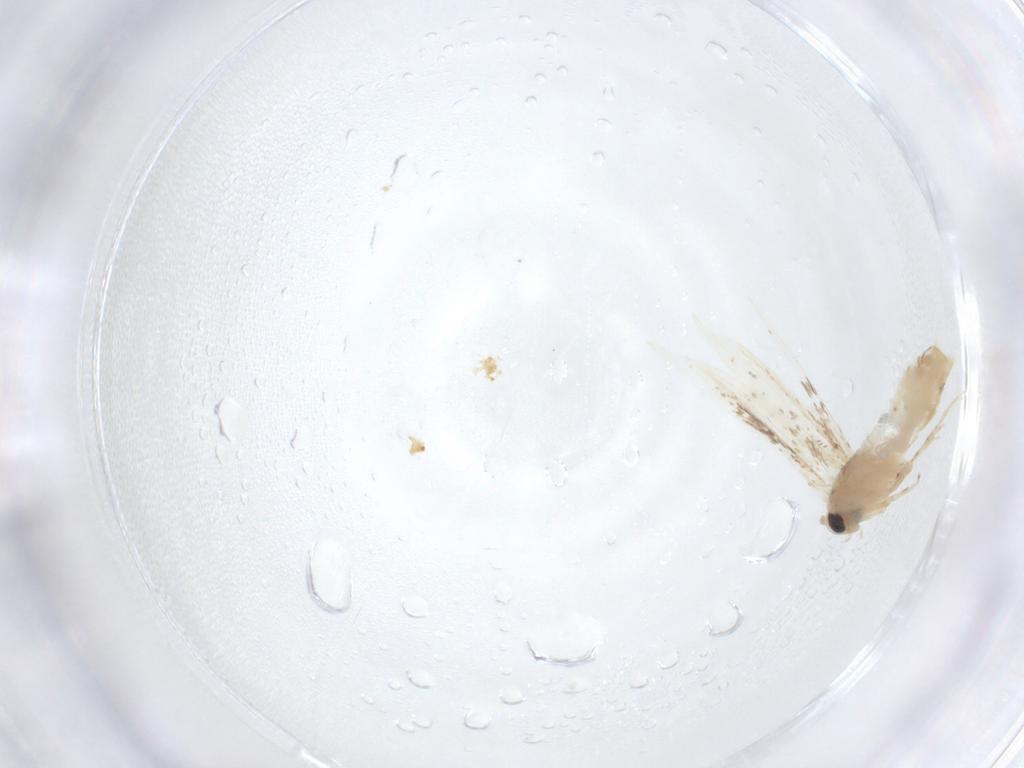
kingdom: Animalia
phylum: Arthropoda
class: Insecta
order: Lepidoptera
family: Gracillariidae
